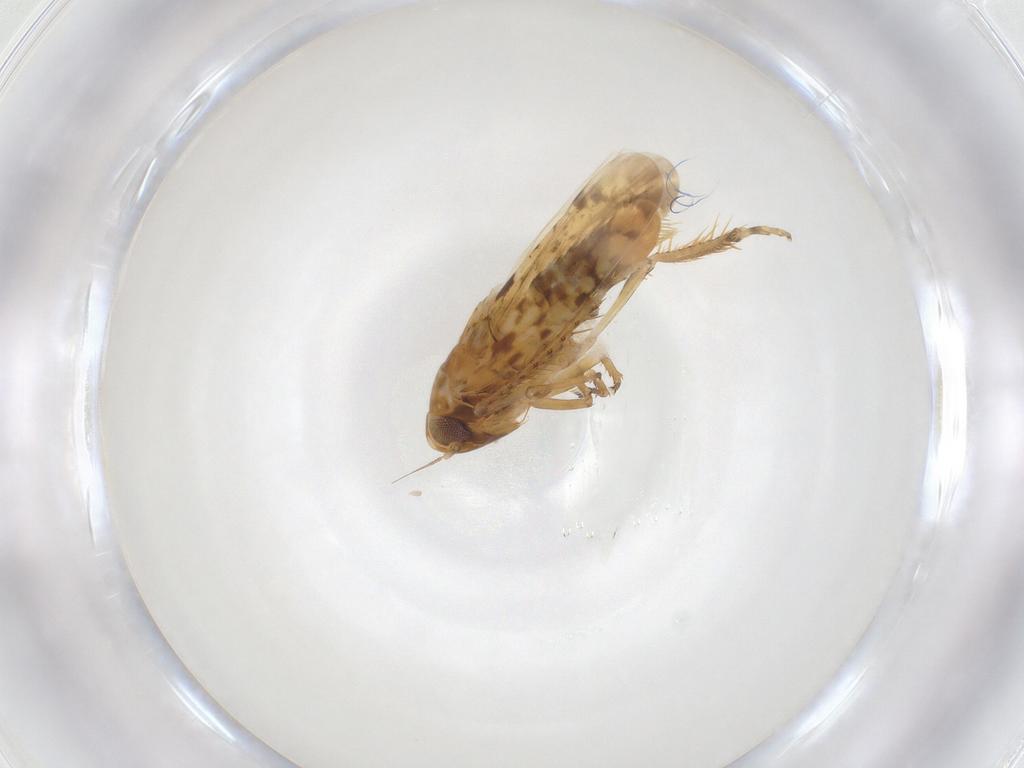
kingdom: Animalia
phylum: Arthropoda
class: Insecta
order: Hemiptera
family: Cicadellidae
